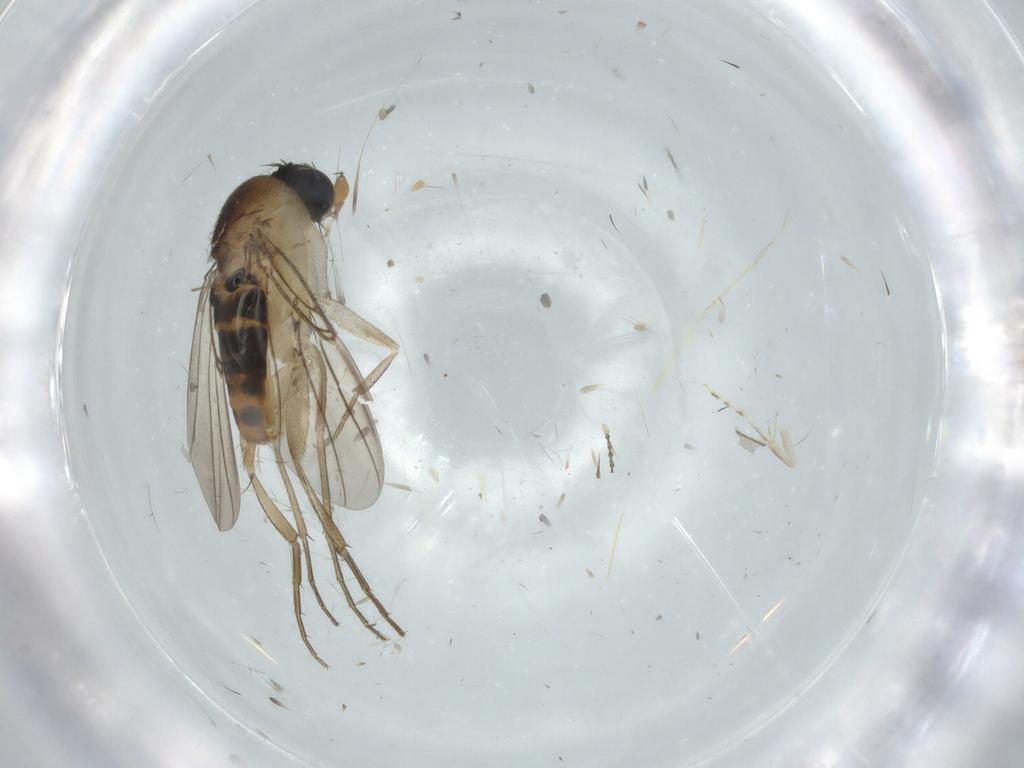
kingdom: Animalia
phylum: Arthropoda
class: Insecta
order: Diptera
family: Phoridae
